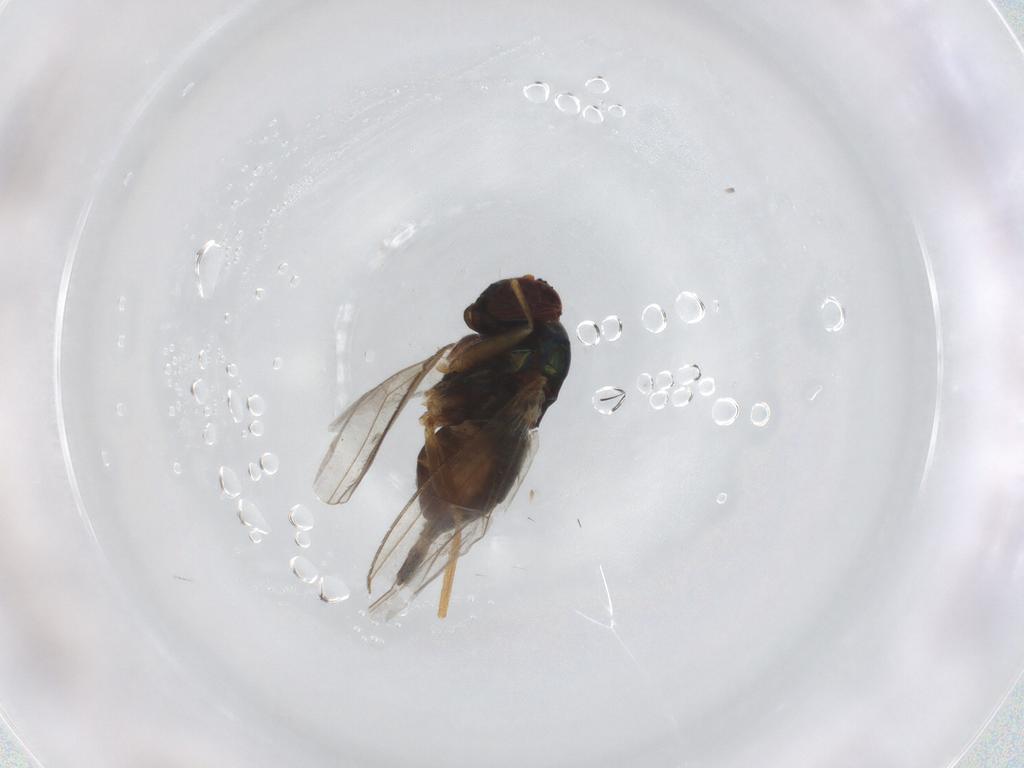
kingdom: Animalia
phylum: Arthropoda
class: Insecta
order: Diptera
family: Dolichopodidae
